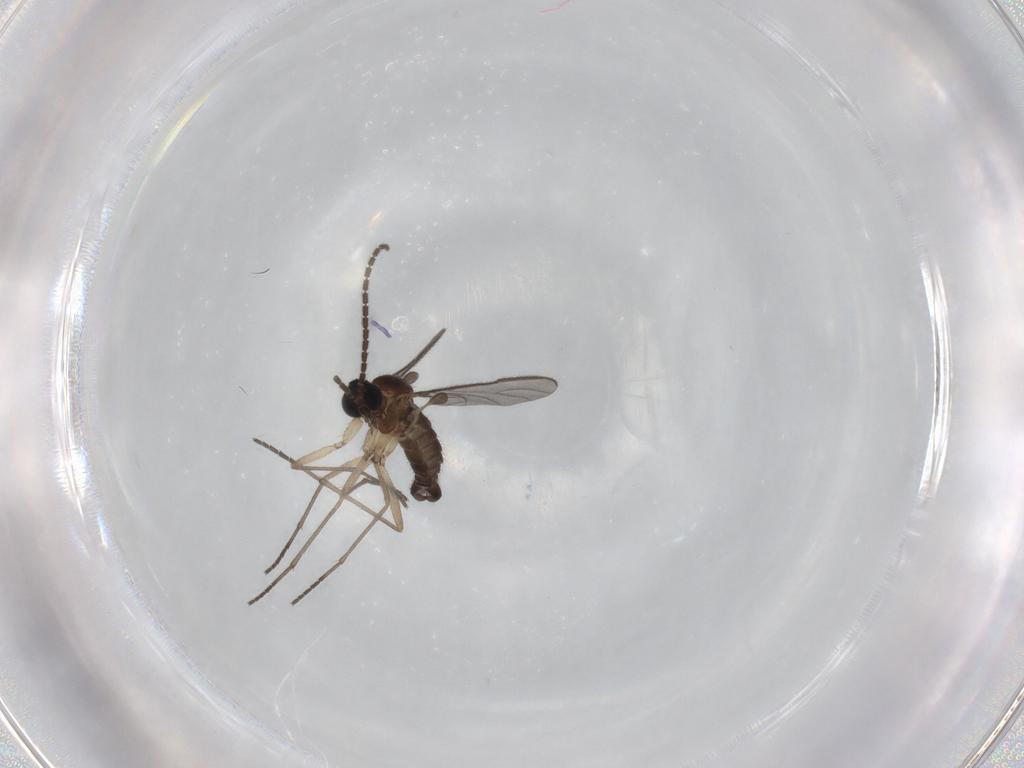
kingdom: Animalia
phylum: Arthropoda
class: Insecta
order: Diptera
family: Sciaridae
